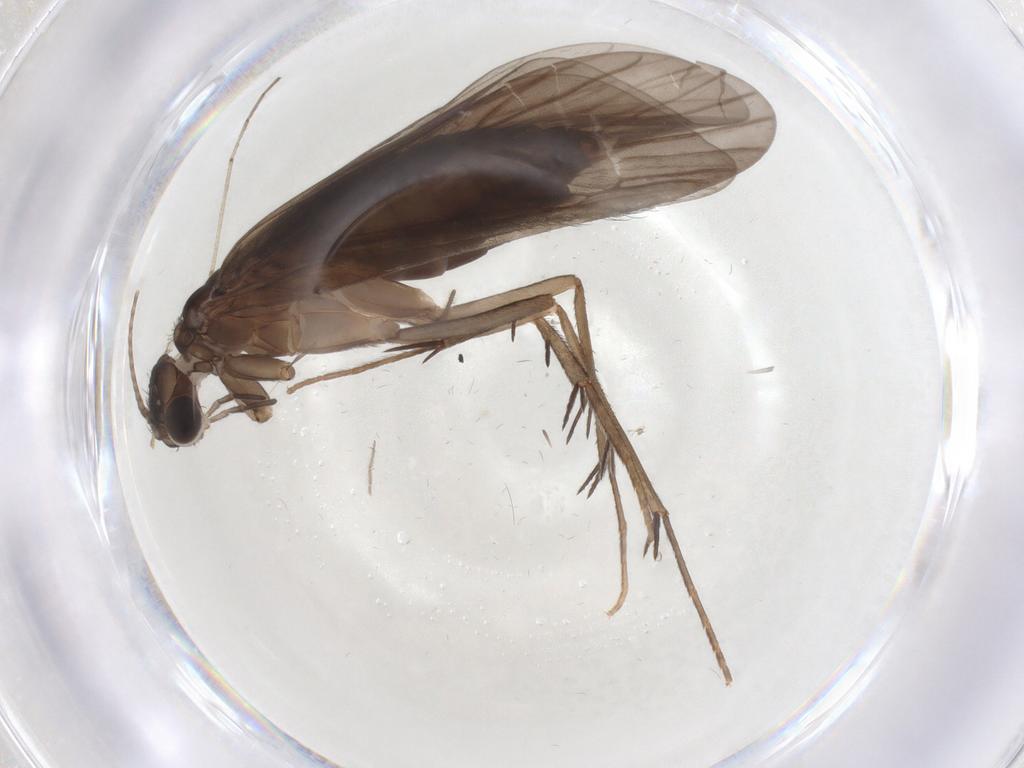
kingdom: Animalia
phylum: Arthropoda
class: Insecta
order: Trichoptera
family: Philopotamidae
